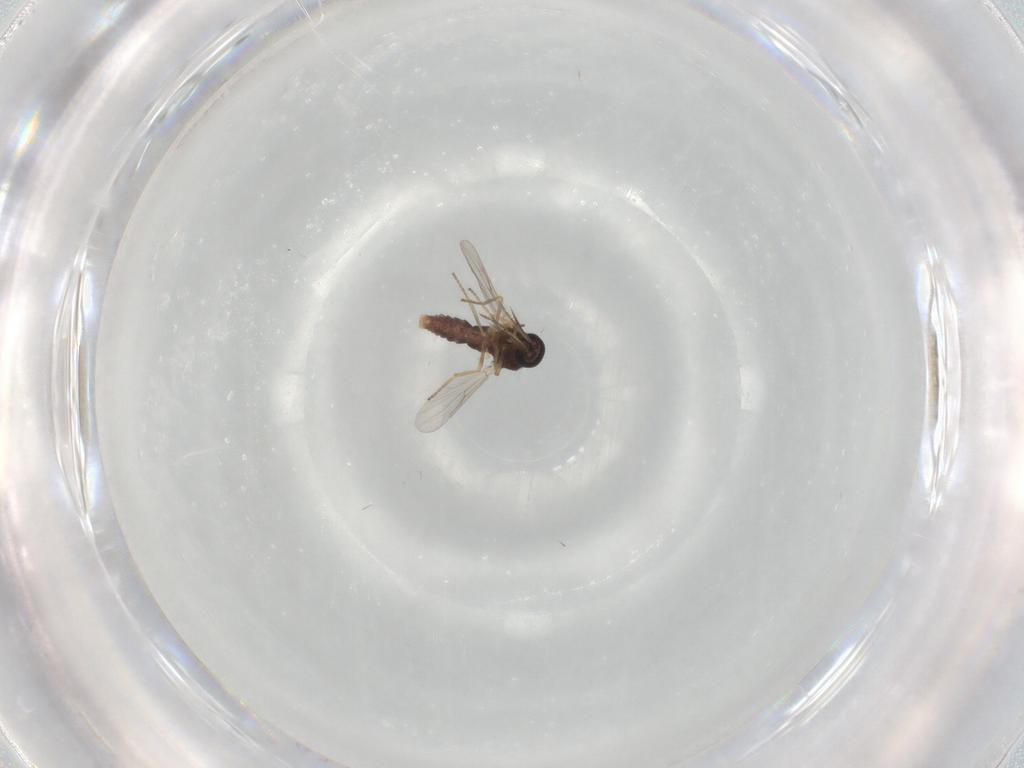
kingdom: Animalia
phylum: Arthropoda
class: Insecta
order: Diptera
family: Ceratopogonidae
